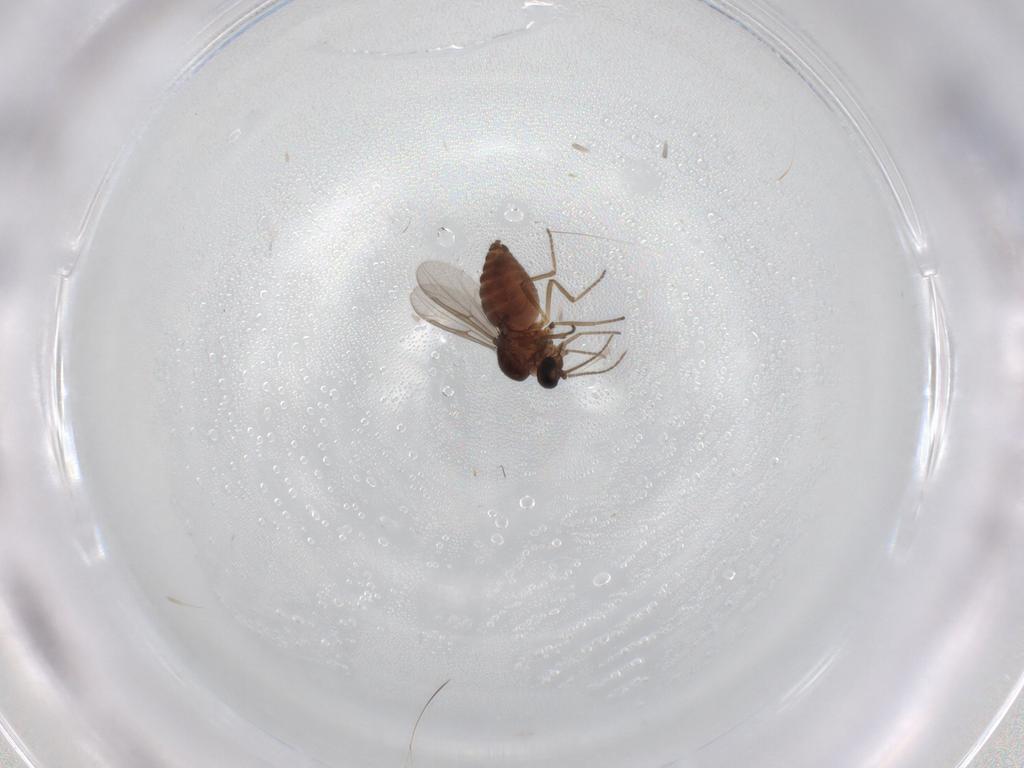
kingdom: Animalia
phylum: Arthropoda
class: Insecta
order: Diptera
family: Ceratopogonidae
